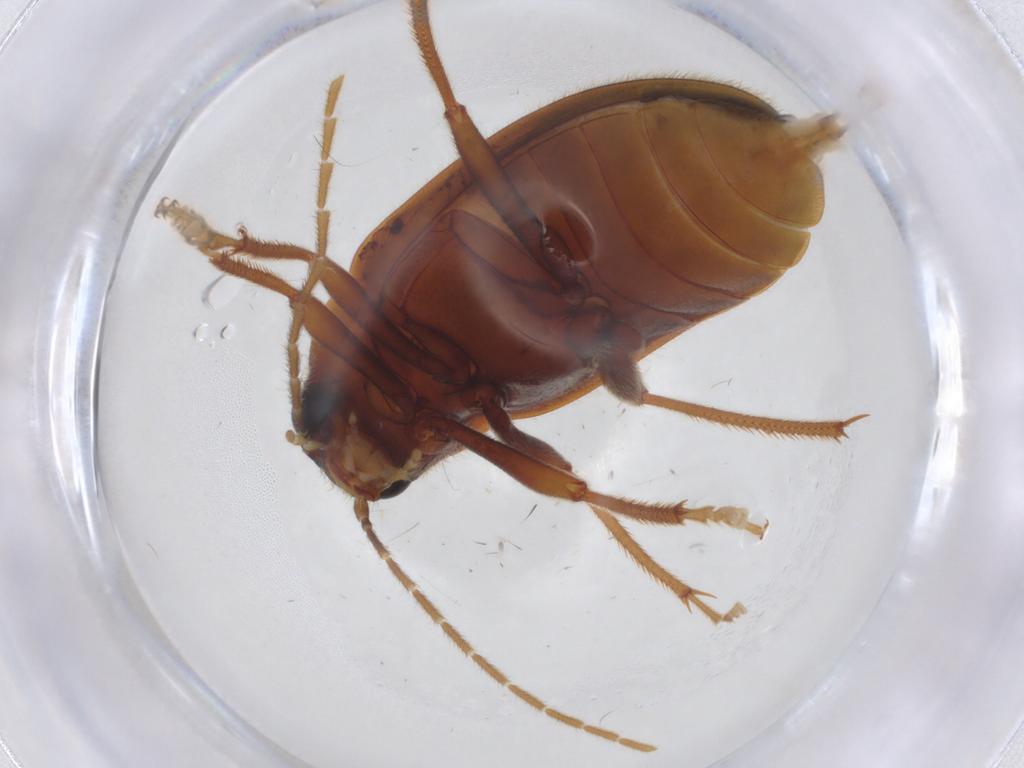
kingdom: Animalia
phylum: Arthropoda
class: Insecta
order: Coleoptera
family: Ptilodactylidae
